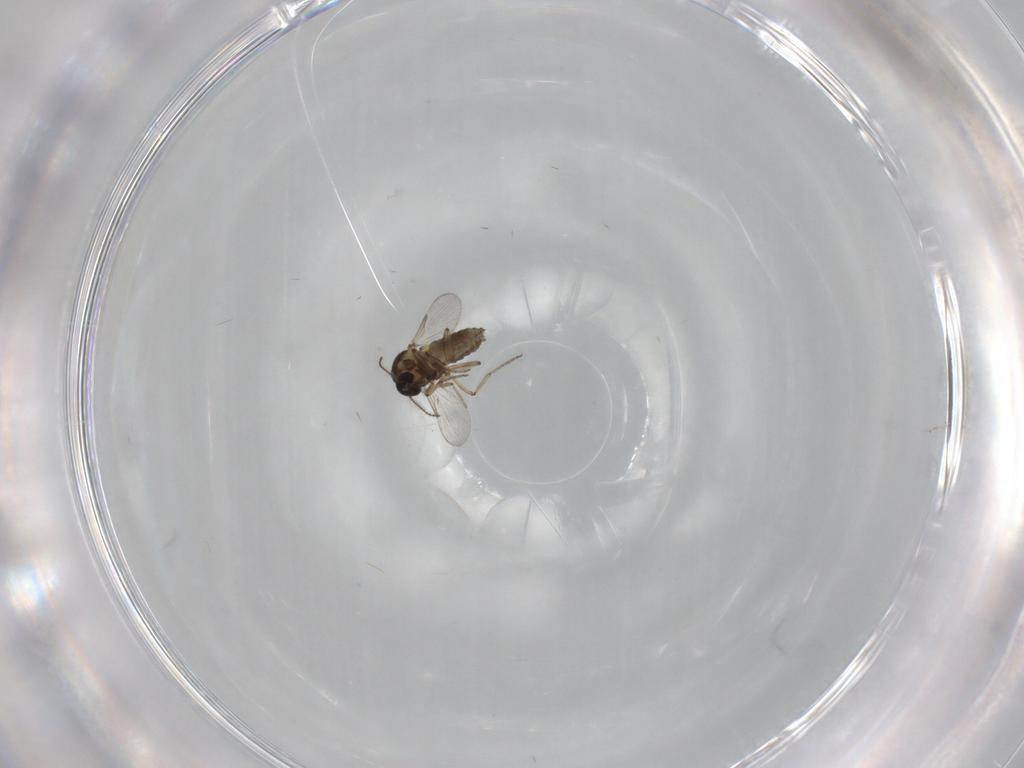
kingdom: Animalia
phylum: Arthropoda
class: Insecta
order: Diptera
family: Ceratopogonidae
